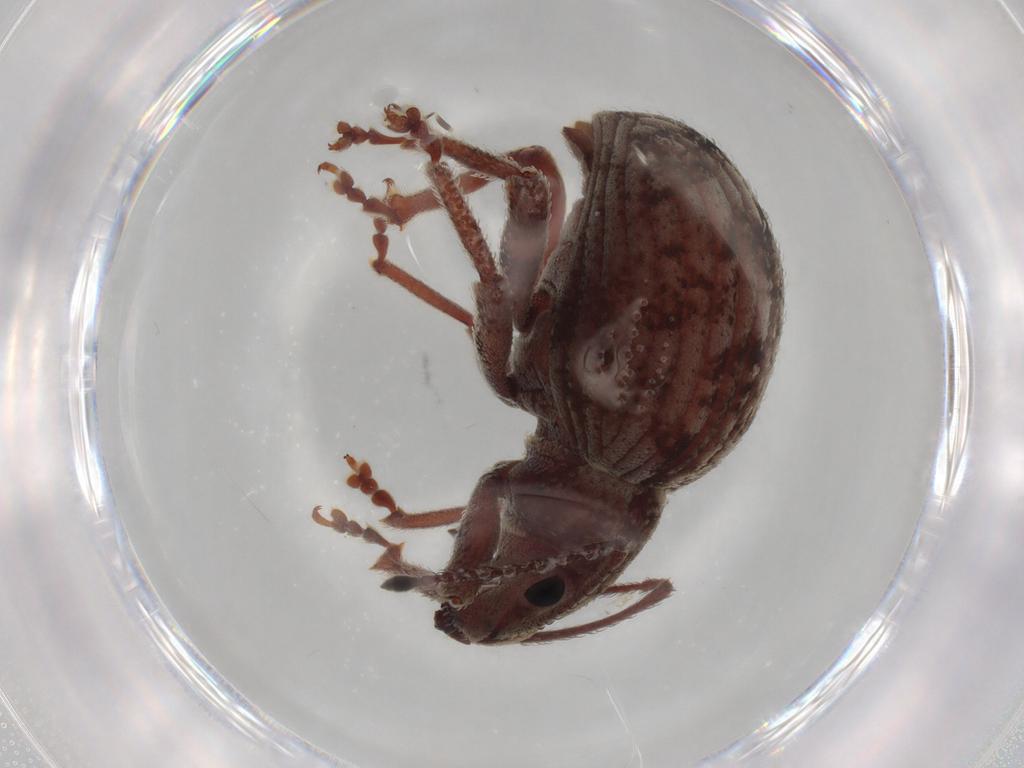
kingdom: Animalia
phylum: Arthropoda
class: Insecta
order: Coleoptera
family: Curculionidae
